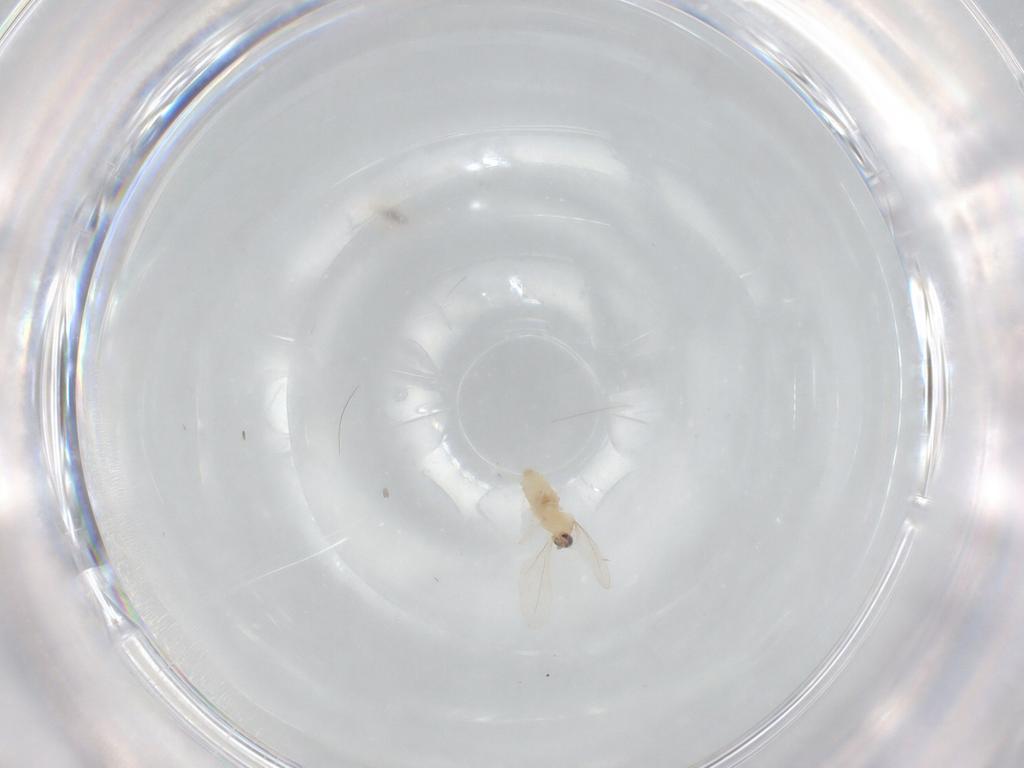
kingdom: Animalia
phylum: Arthropoda
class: Insecta
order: Diptera
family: Cecidomyiidae
